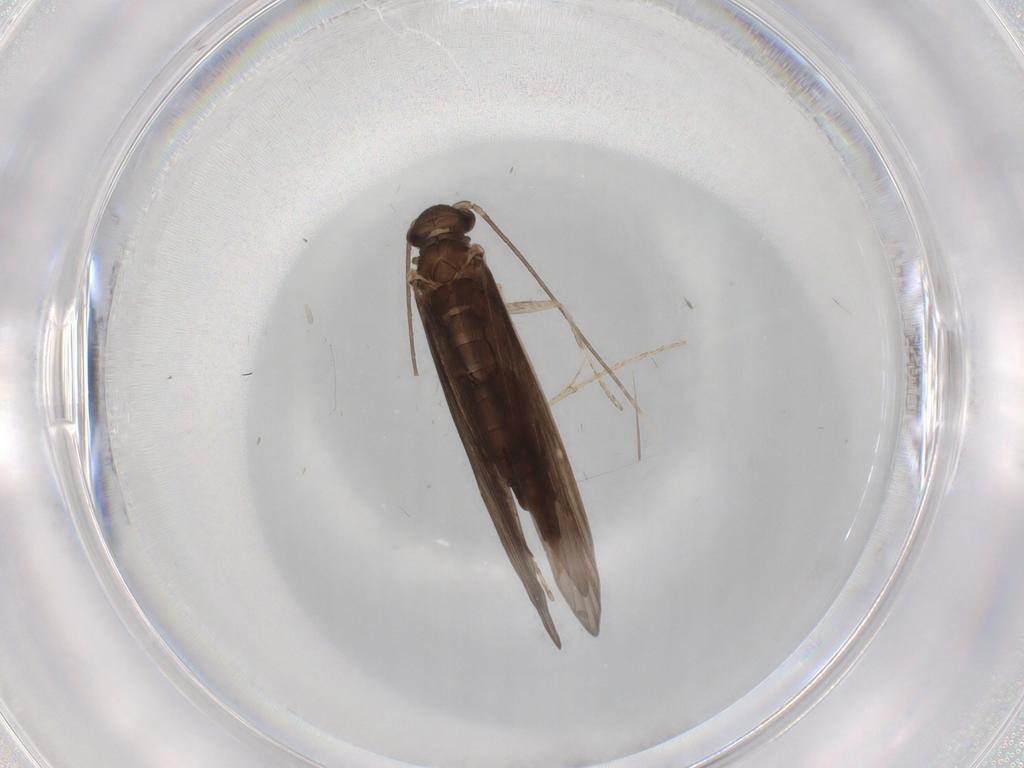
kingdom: Animalia
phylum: Arthropoda
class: Insecta
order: Trichoptera
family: Xiphocentronidae
